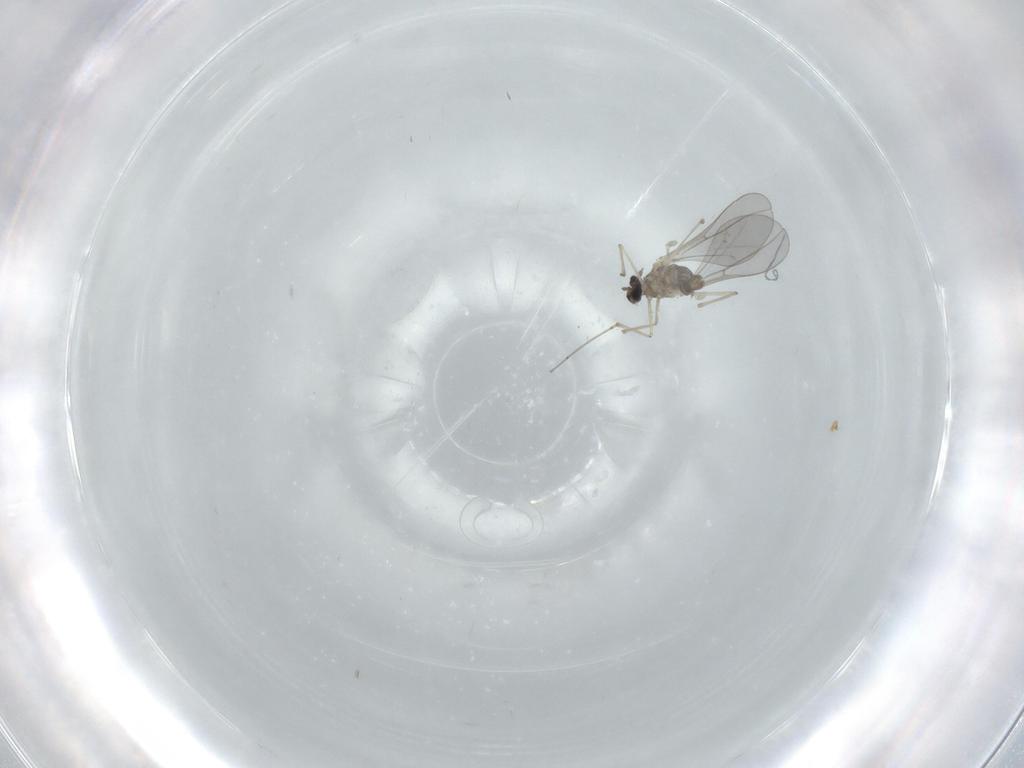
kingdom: Animalia
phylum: Arthropoda
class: Insecta
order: Diptera
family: Cecidomyiidae
